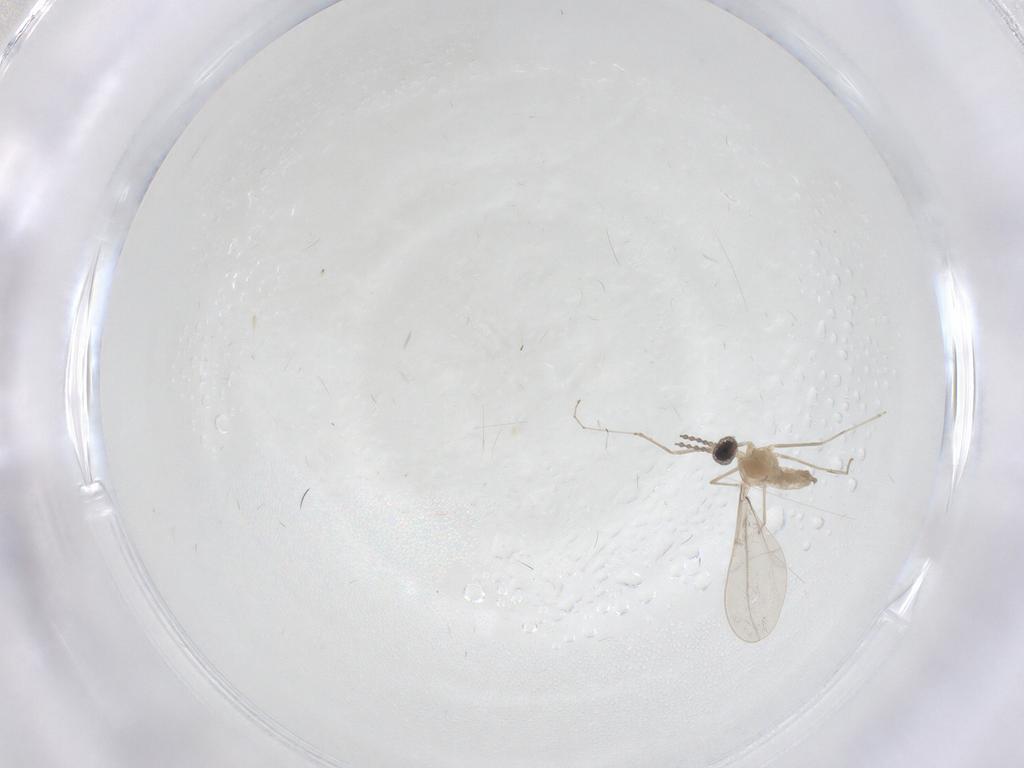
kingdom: Animalia
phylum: Arthropoda
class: Insecta
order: Diptera
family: Cecidomyiidae
